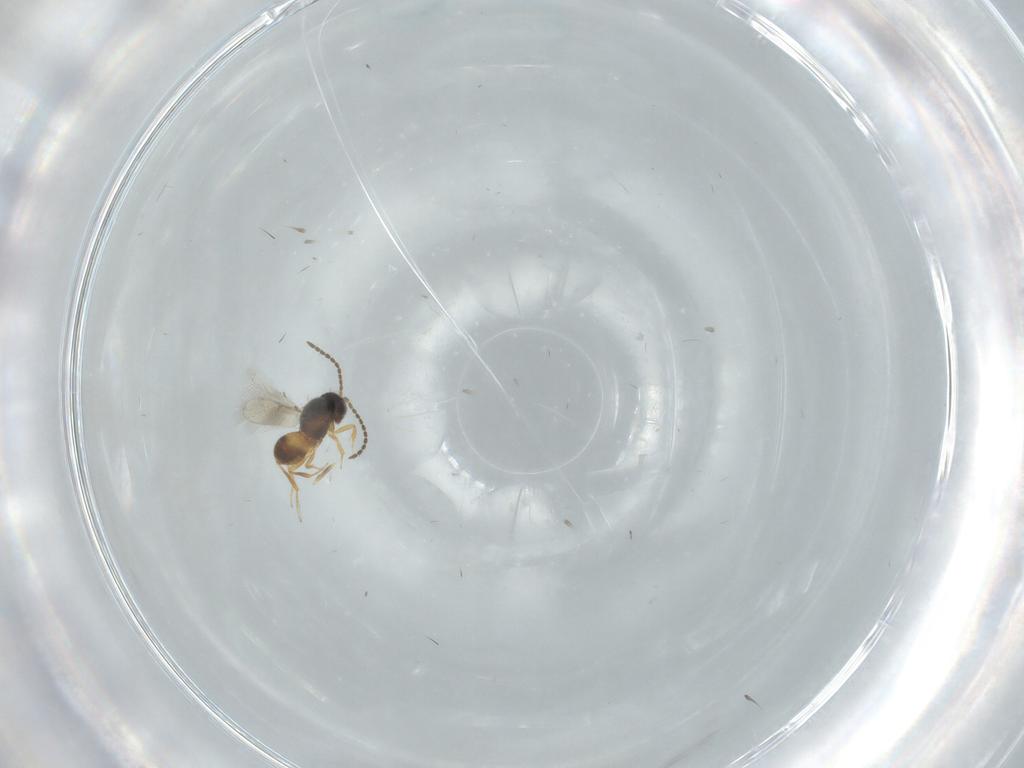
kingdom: Animalia
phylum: Arthropoda
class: Insecta
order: Hymenoptera
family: Scelionidae
